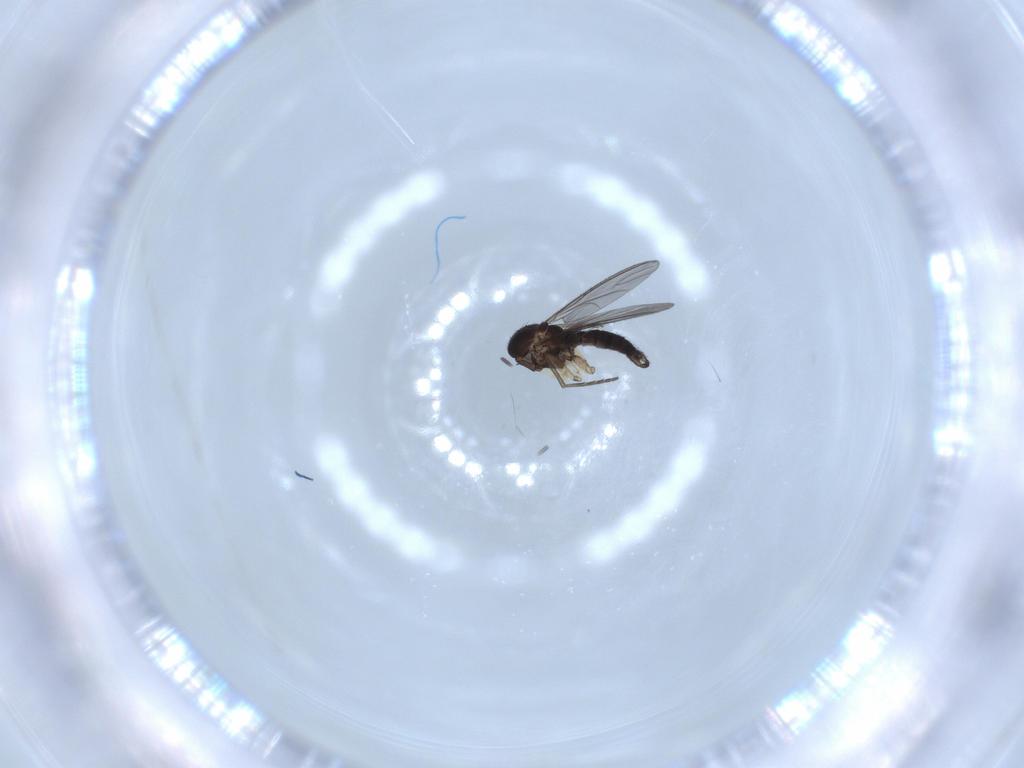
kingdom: Animalia
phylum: Arthropoda
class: Insecta
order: Diptera
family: Sciaridae
